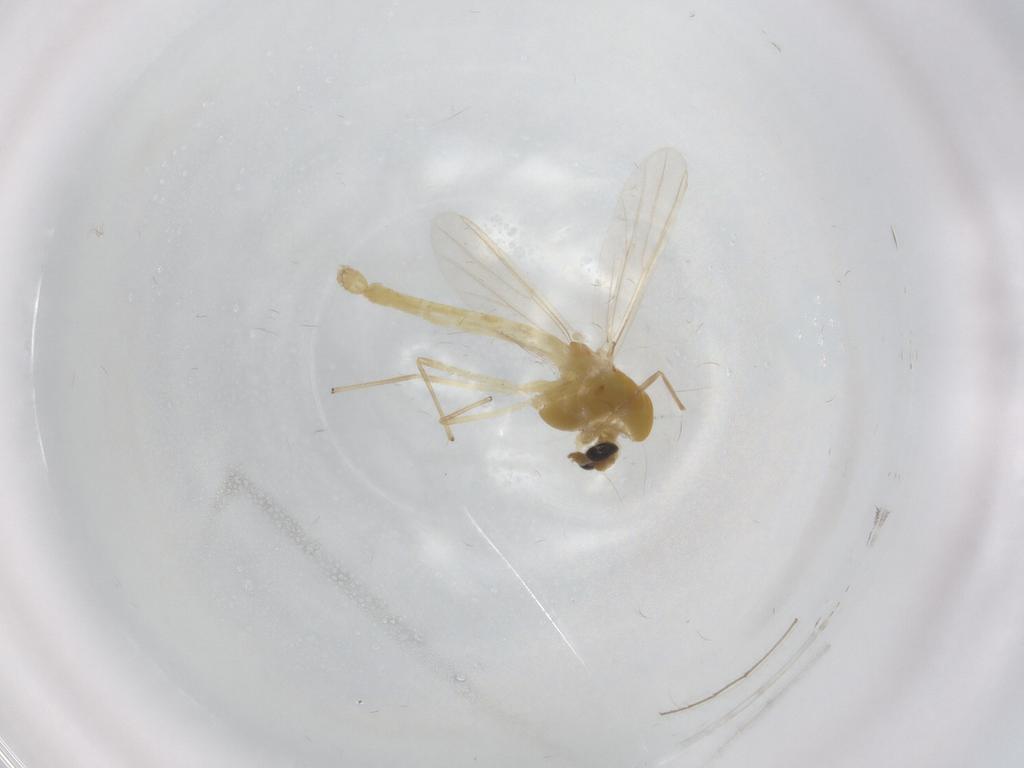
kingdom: Animalia
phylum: Arthropoda
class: Insecta
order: Diptera
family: Chironomidae
